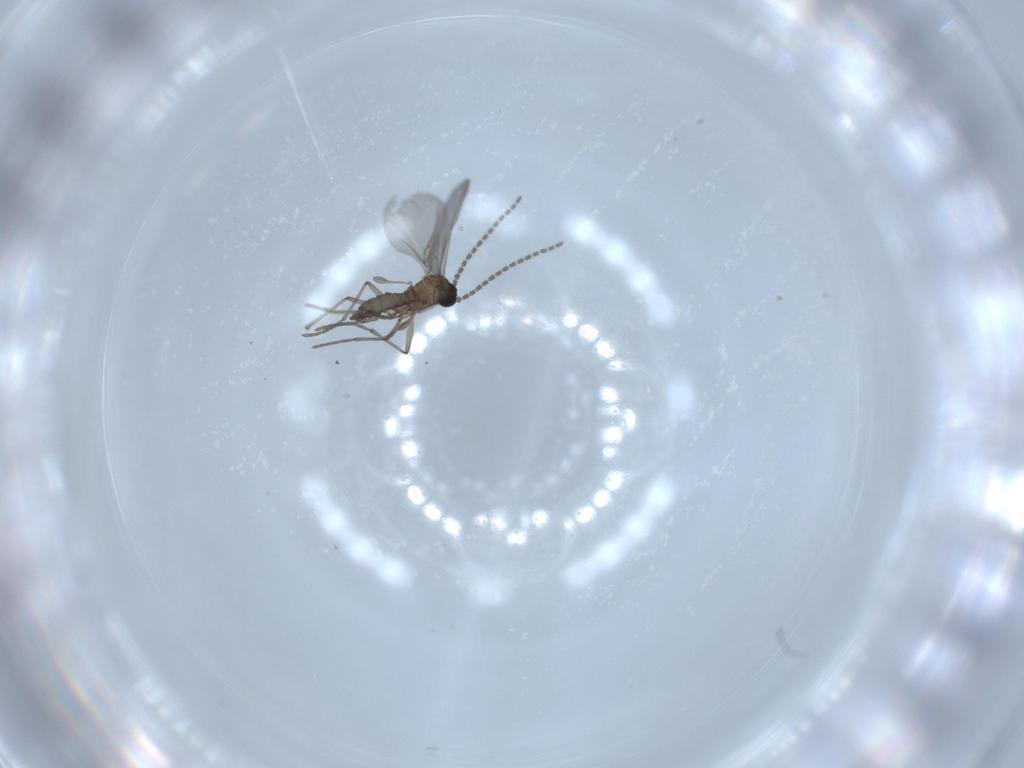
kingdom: Animalia
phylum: Arthropoda
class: Insecta
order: Diptera
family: Sciaridae
